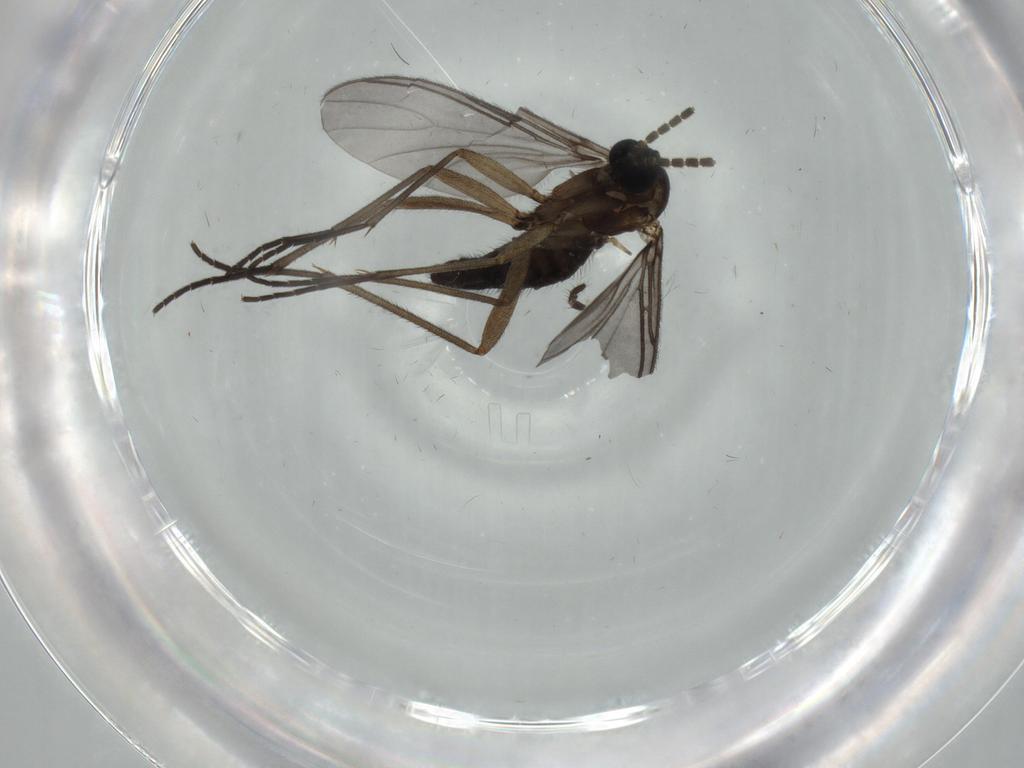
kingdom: Animalia
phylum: Arthropoda
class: Insecta
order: Diptera
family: Sciaridae
